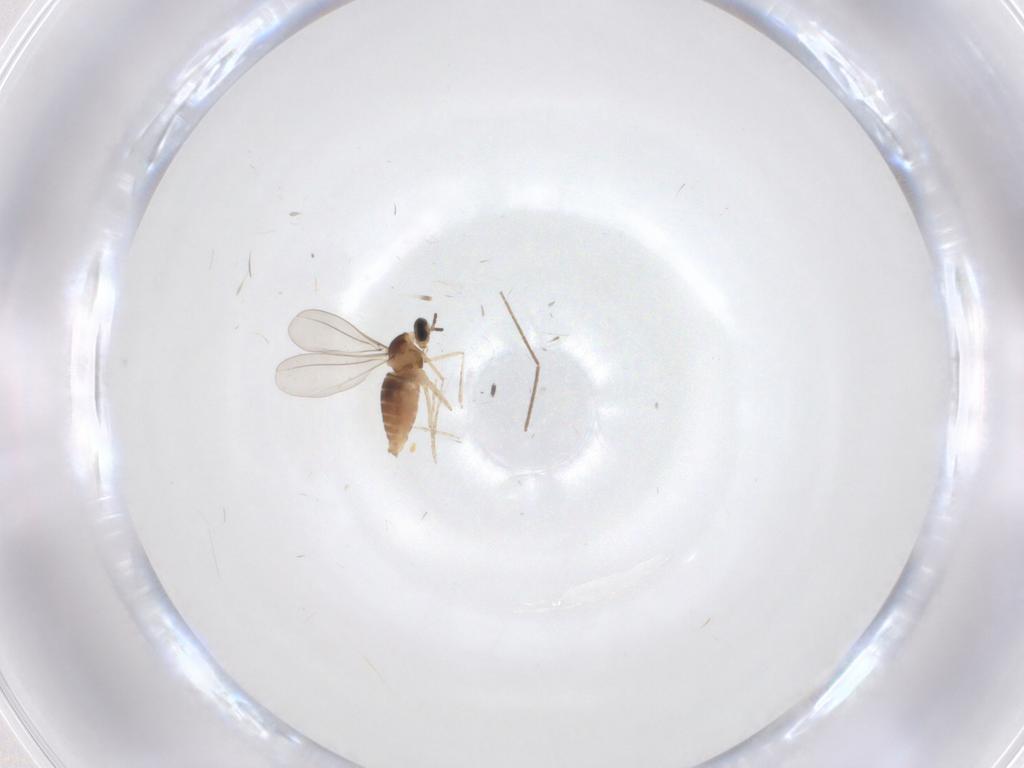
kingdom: Animalia
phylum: Arthropoda
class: Insecta
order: Diptera
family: Cecidomyiidae
